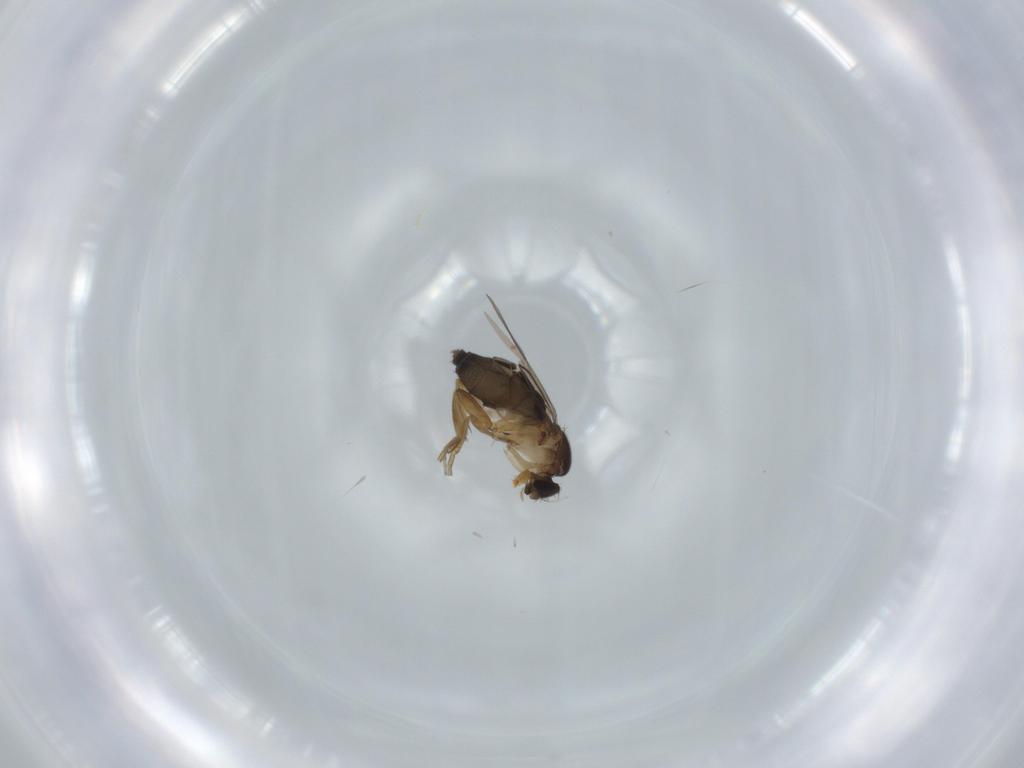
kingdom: Animalia
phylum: Arthropoda
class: Insecta
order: Diptera
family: Phoridae
